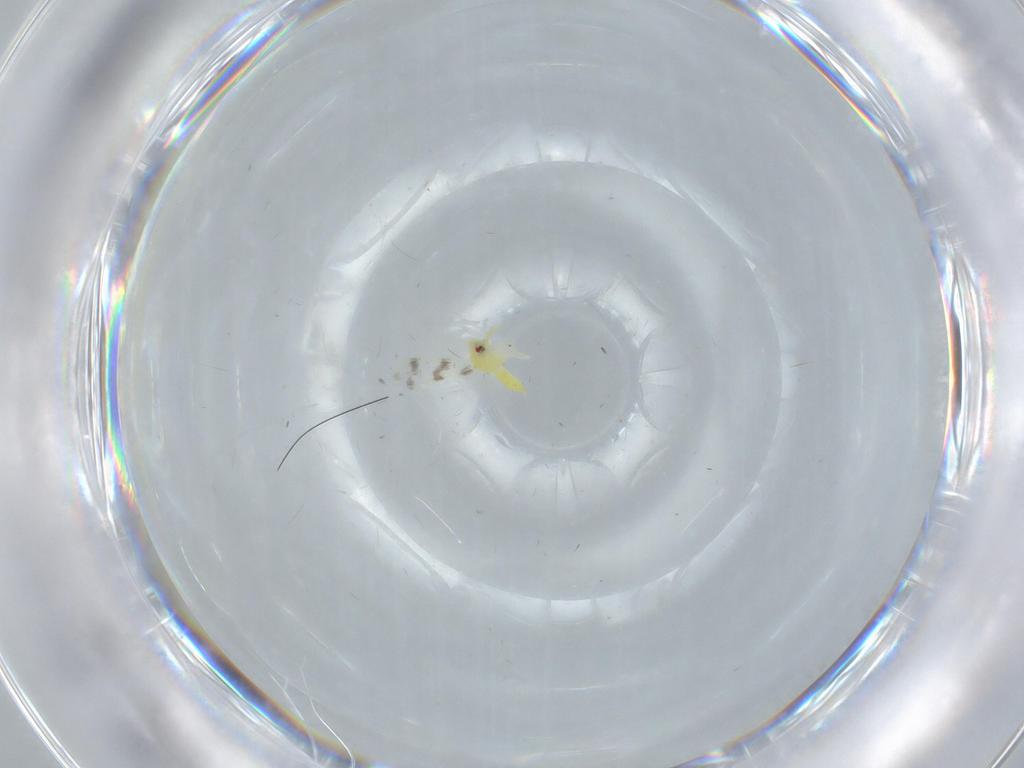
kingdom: Animalia
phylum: Arthropoda
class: Insecta
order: Hemiptera
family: Aleyrodidae
